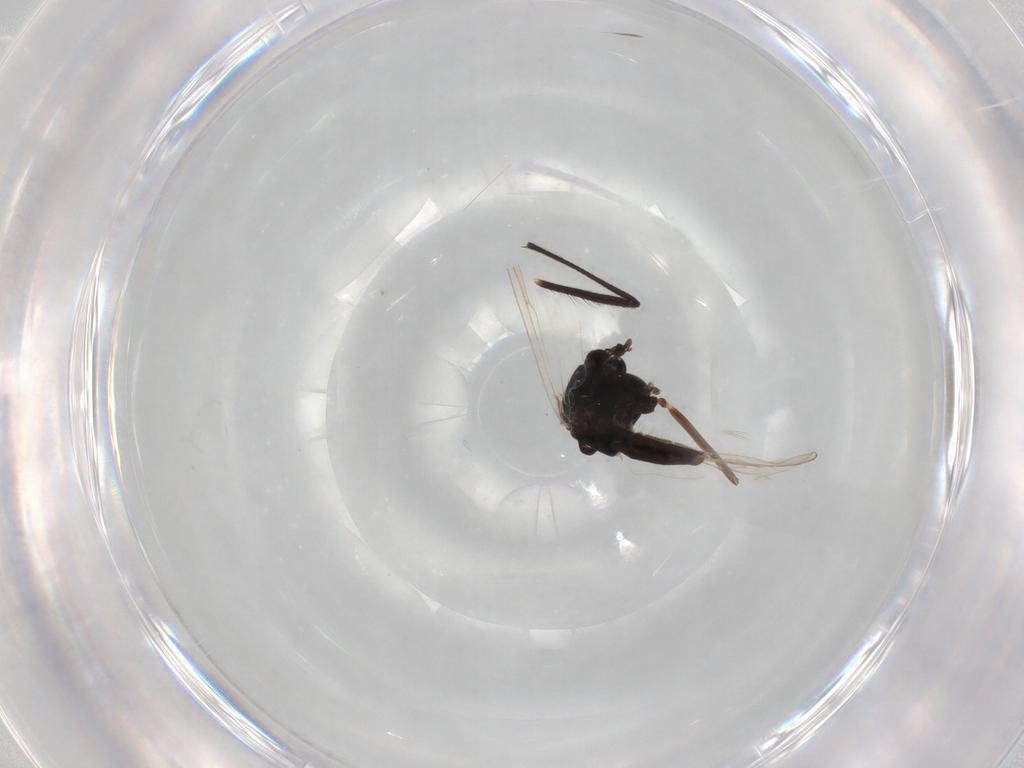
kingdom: Animalia
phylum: Arthropoda
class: Insecta
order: Diptera
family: Chironomidae
